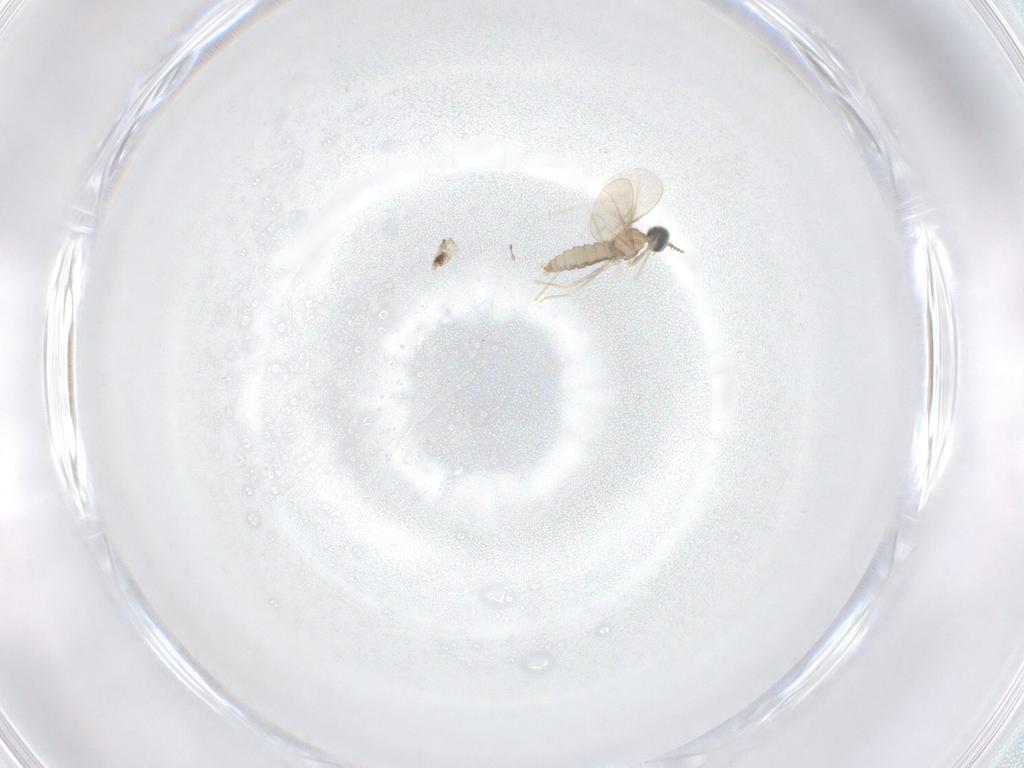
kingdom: Animalia
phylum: Arthropoda
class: Insecta
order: Diptera
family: Cecidomyiidae
